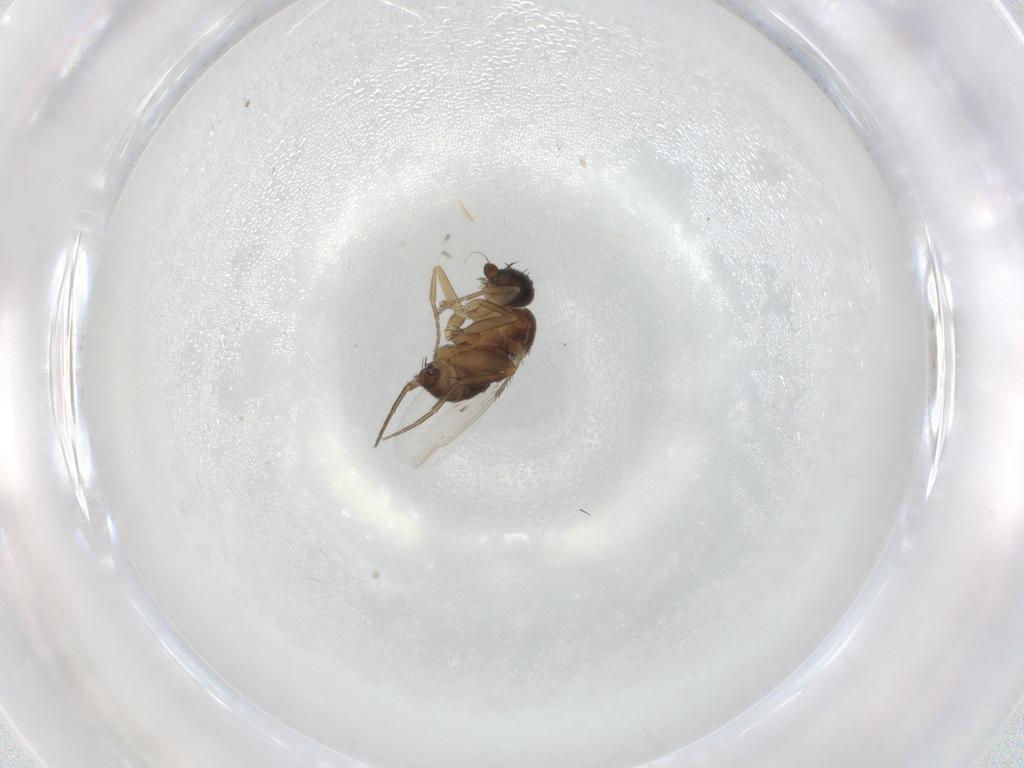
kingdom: Animalia
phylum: Arthropoda
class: Insecta
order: Diptera
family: Phoridae
